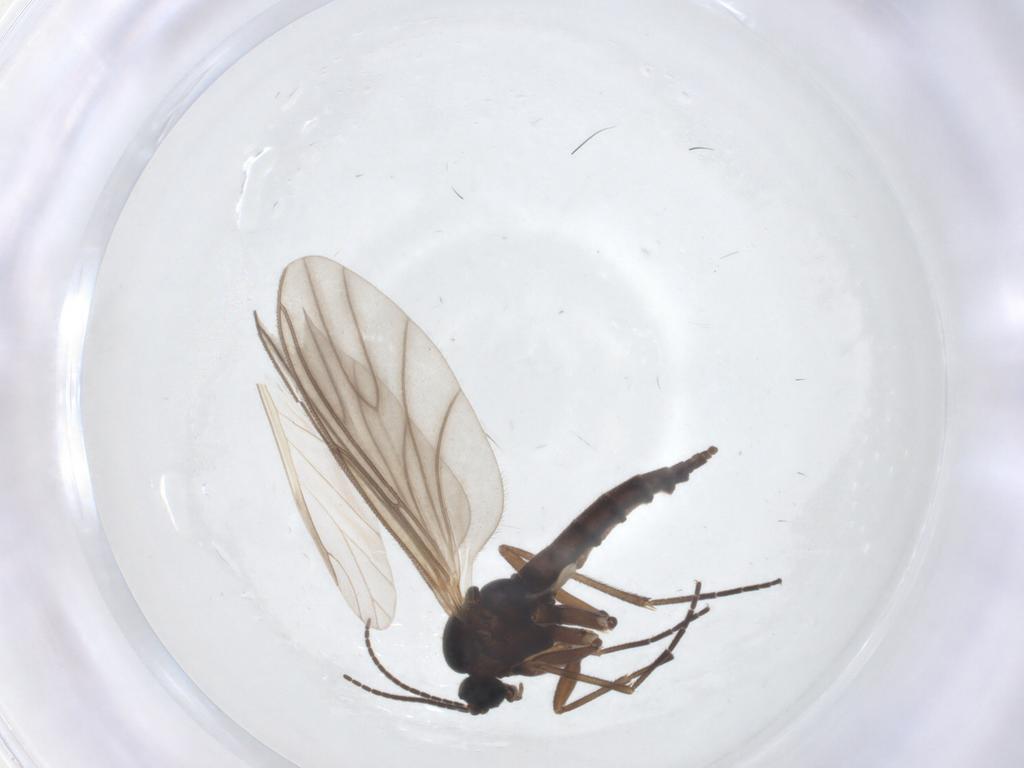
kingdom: Animalia
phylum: Arthropoda
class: Insecta
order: Diptera
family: Sciaridae
